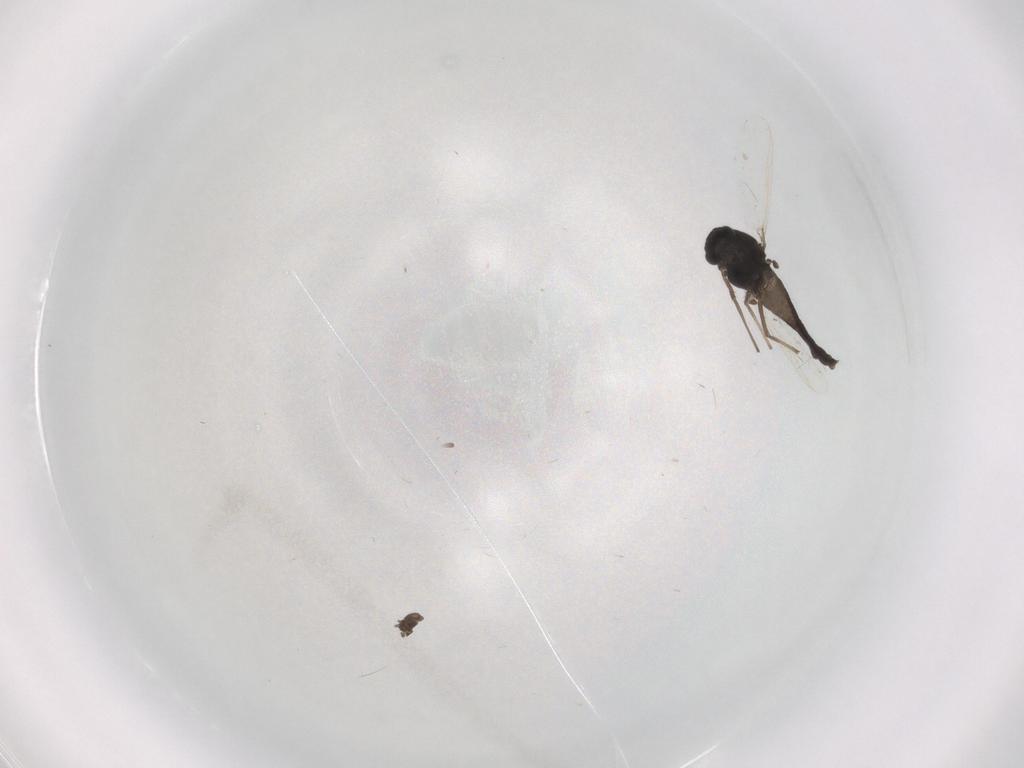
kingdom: Animalia
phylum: Arthropoda
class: Insecta
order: Diptera
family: Chironomidae
